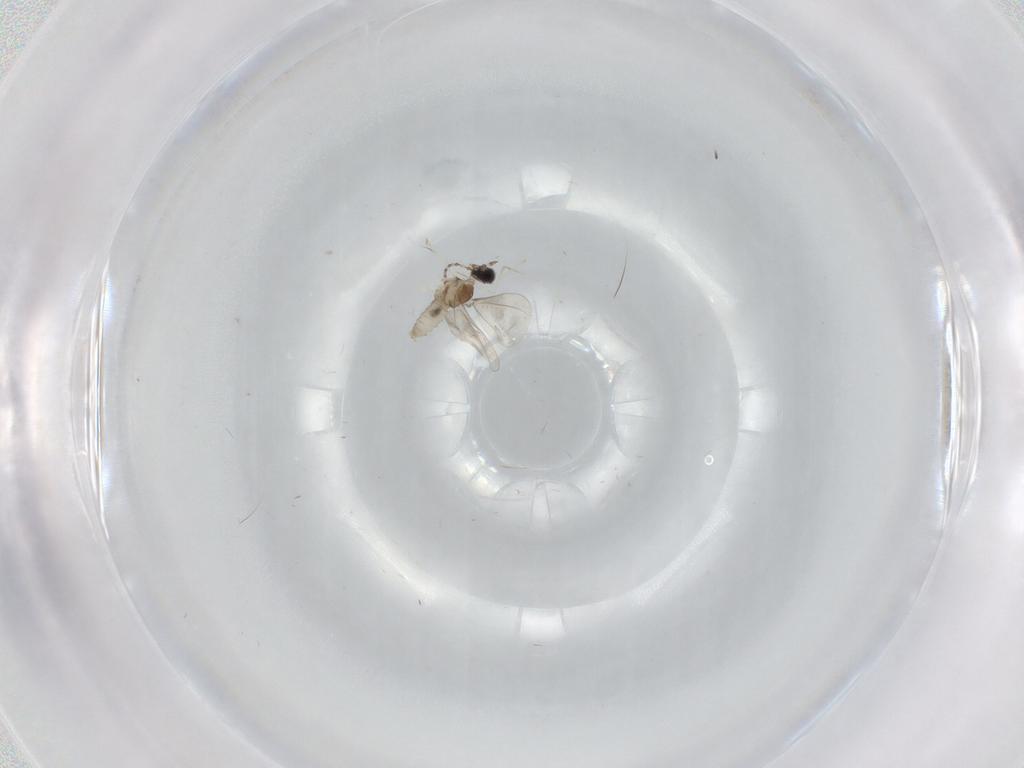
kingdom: Animalia
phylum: Arthropoda
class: Insecta
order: Diptera
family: Cecidomyiidae
